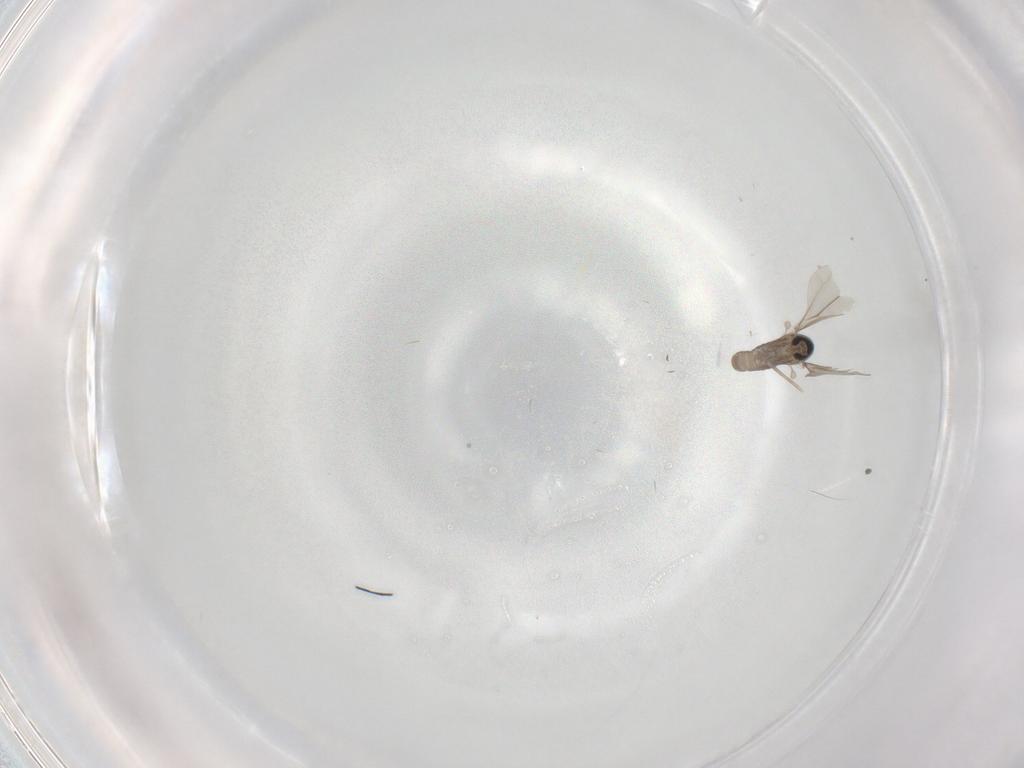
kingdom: Animalia
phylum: Arthropoda
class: Insecta
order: Diptera
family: Cecidomyiidae
